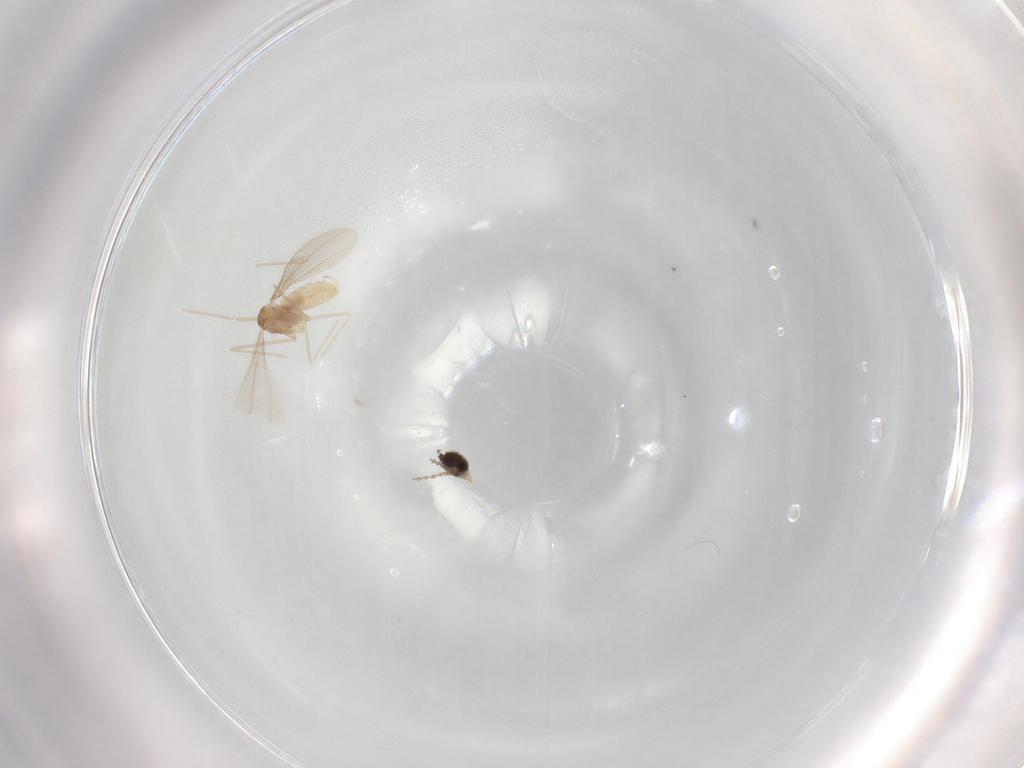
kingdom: Animalia
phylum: Arthropoda
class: Insecta
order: Diptera
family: Cecidomyiidae
